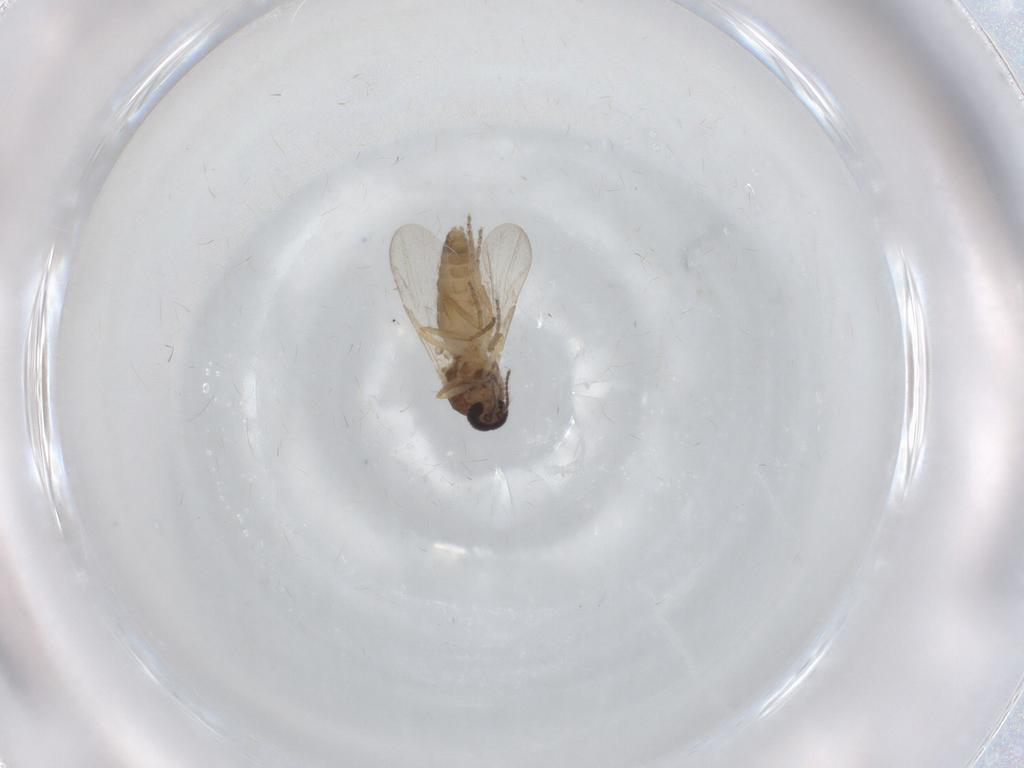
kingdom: Animalia
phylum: Arthropoda
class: Insecta
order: Diptera
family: Ceratopogonidae
